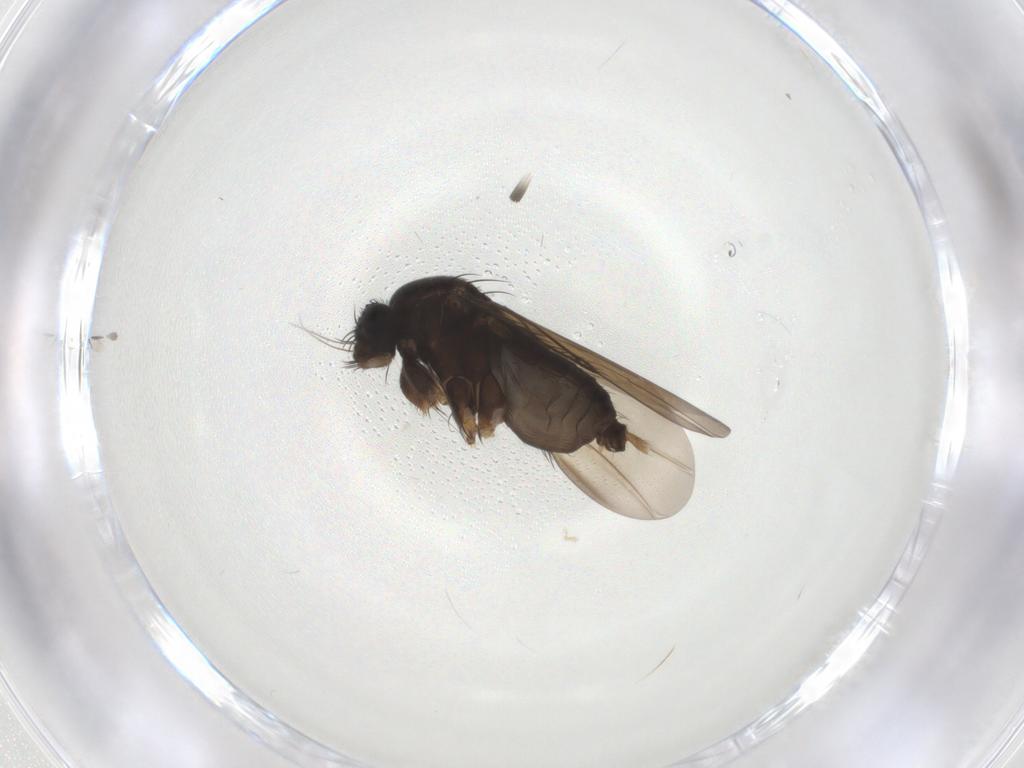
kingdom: Animalia
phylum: Arthropoda
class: Insecta
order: Diptera
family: Phoridae
